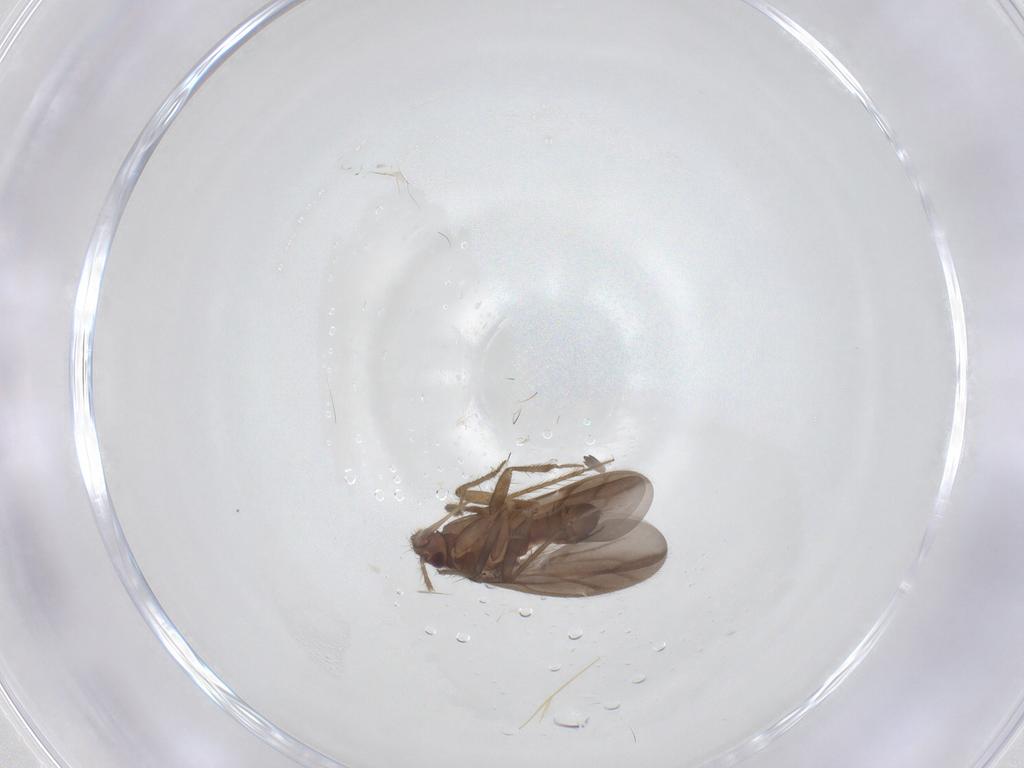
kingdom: Animalia
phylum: Arthropoda
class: Insecta
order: Hemiptera
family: Ceratocombidae
